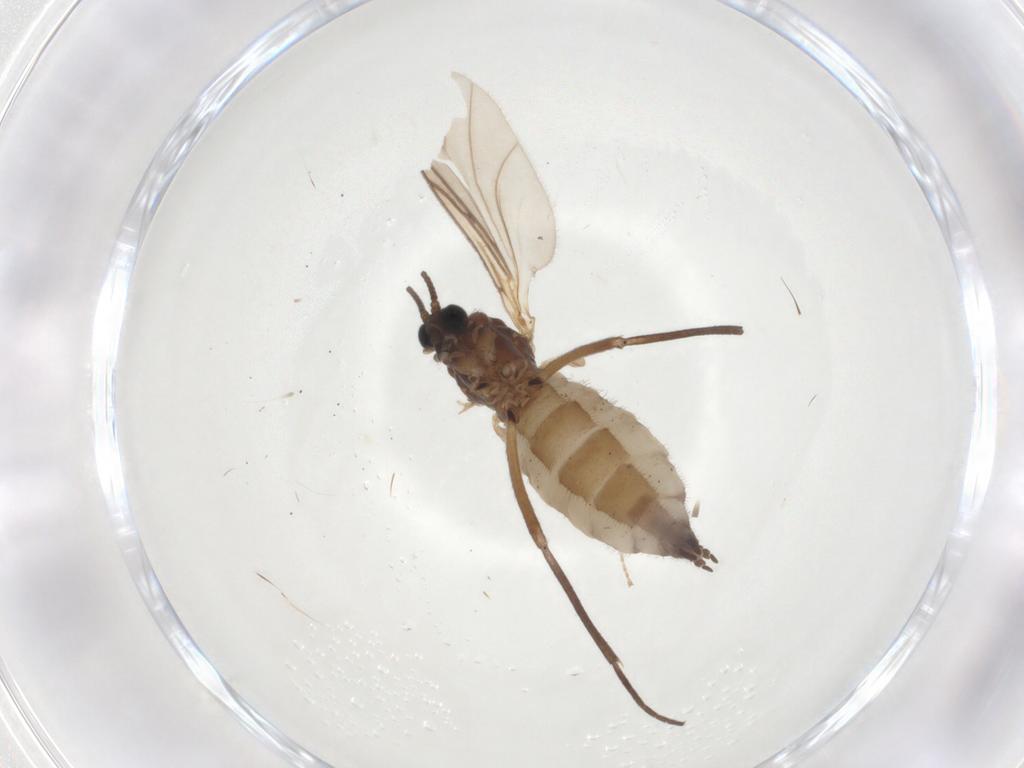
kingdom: Animalia
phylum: Arthropoda
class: Insecta
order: Diptera
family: Sciaridae
